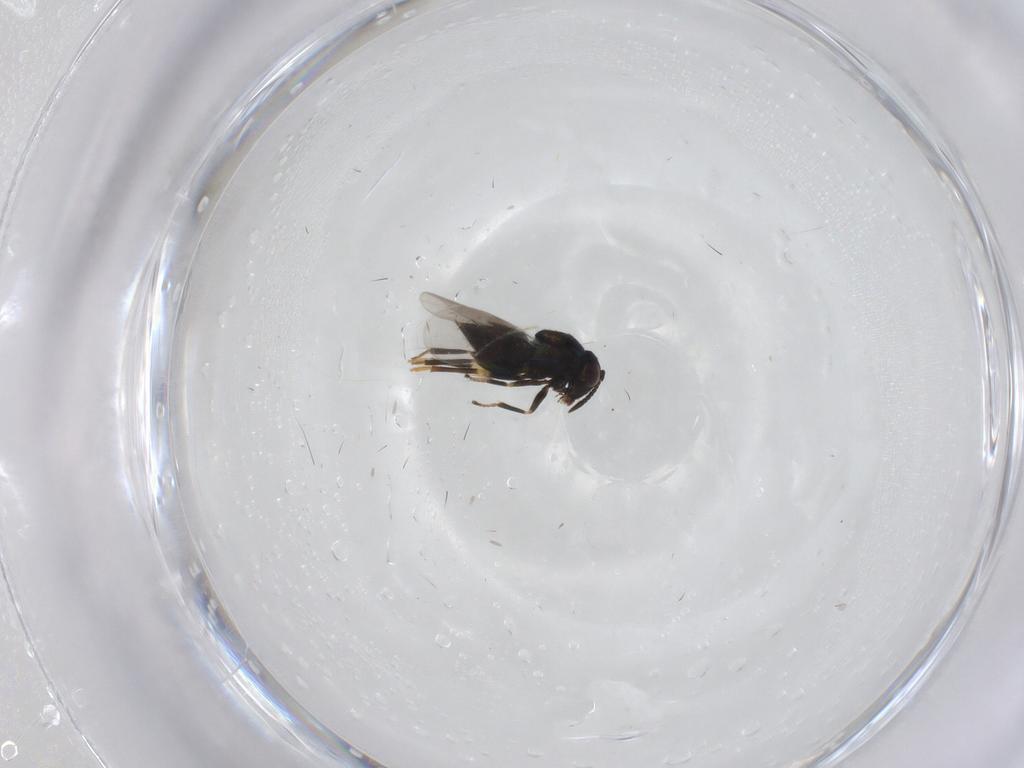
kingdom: Animalia
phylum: Arthropoda
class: Insecta
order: Hymenoptera
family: Encyrtidae
